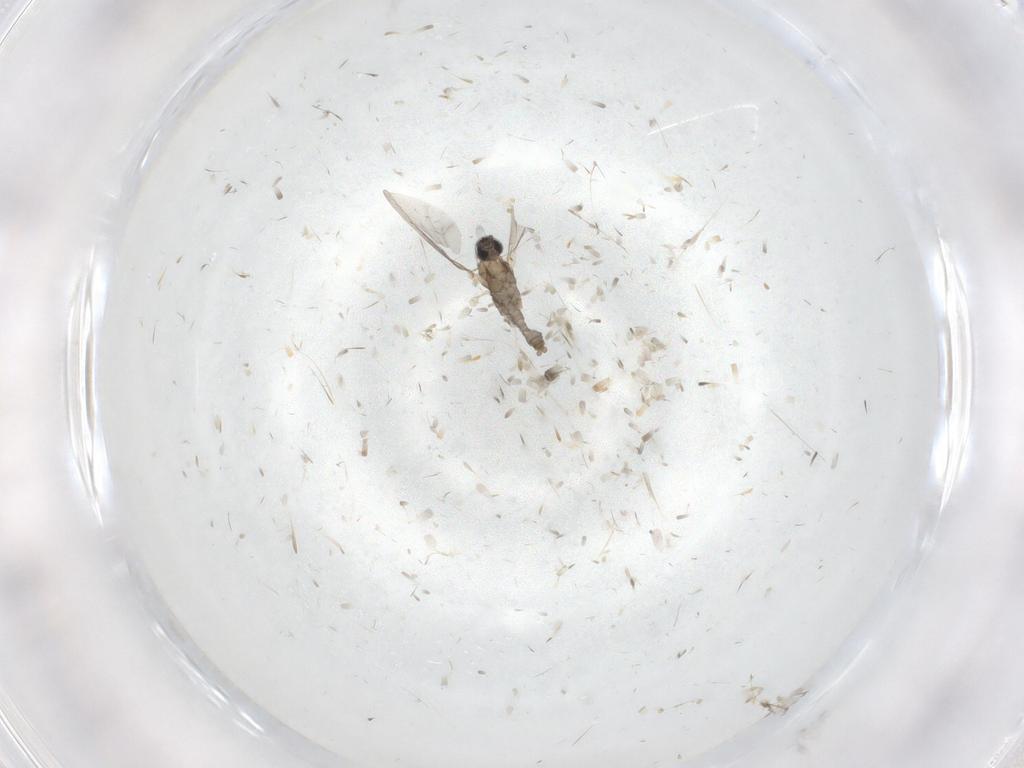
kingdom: Animalia
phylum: Arthropoda
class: Insecta
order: Diptera
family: Cecidomyiidae
